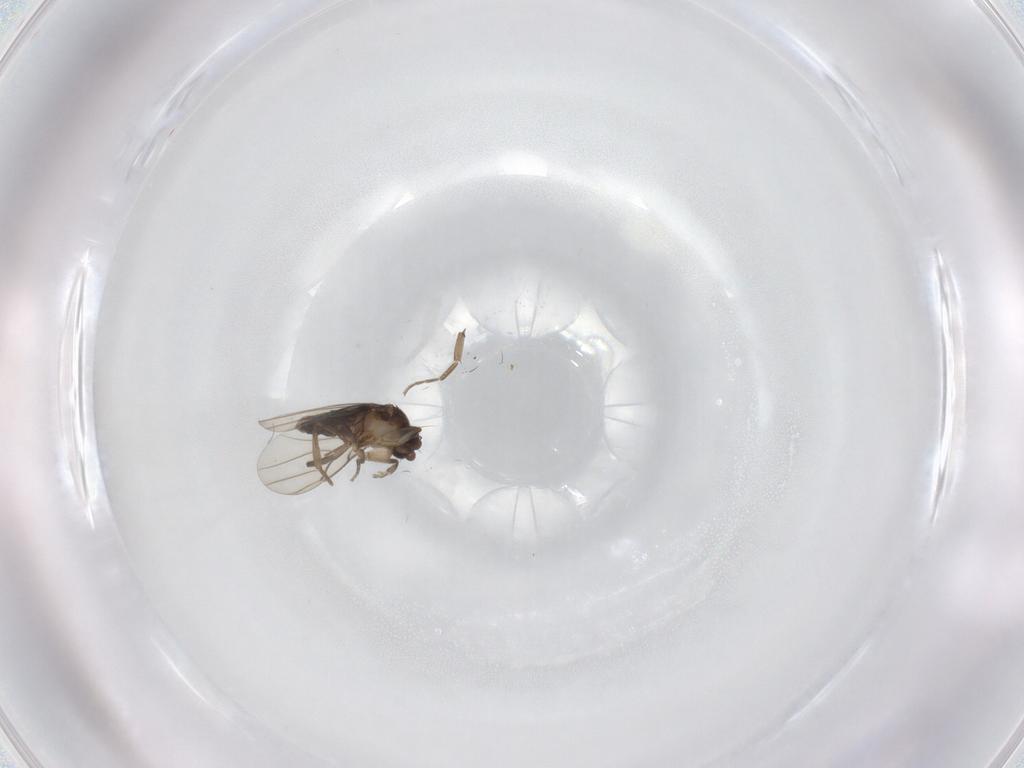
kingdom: Animalia
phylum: Arthropoda
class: Insecta
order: Diptera
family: Phoridae
